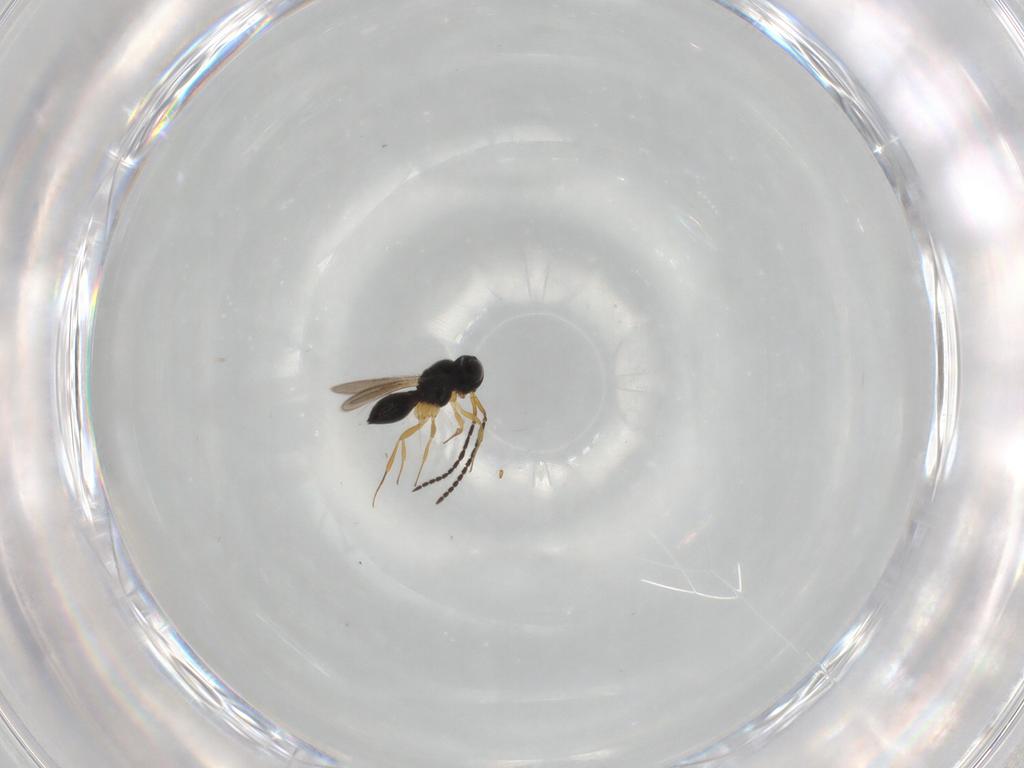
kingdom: Animalia
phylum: Arthropoda
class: Insecta
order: Hymenoptera
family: Scelionidae
